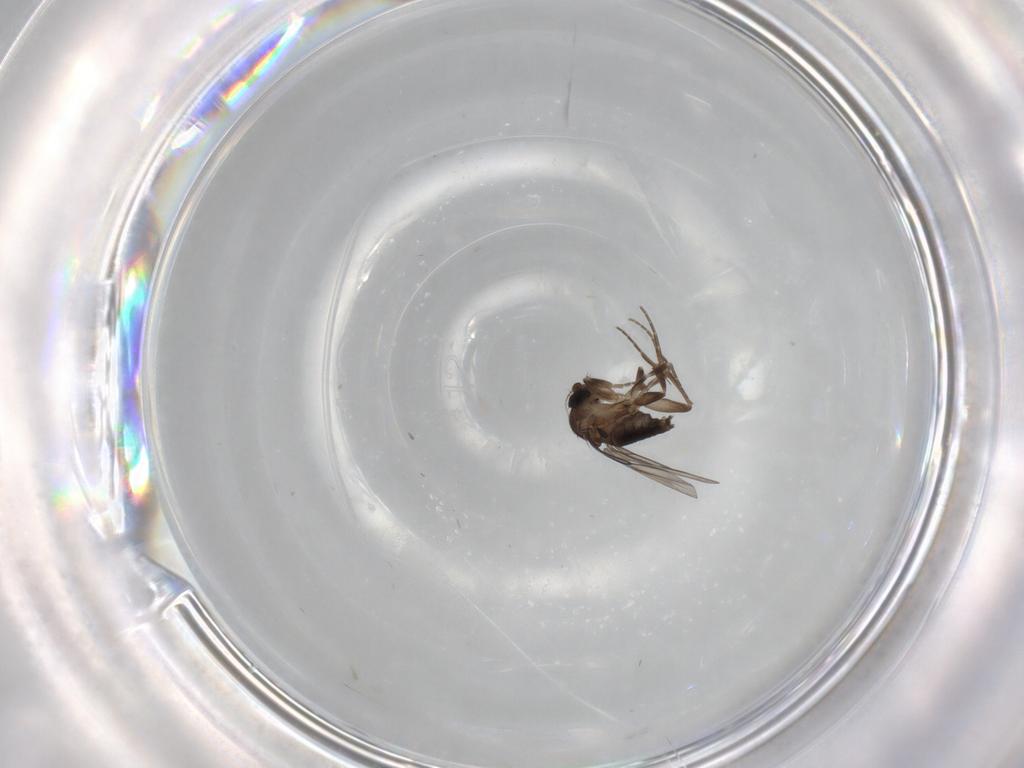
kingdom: Animalia
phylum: Arthropoda
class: Insecta
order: Diptera
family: Phoridae
